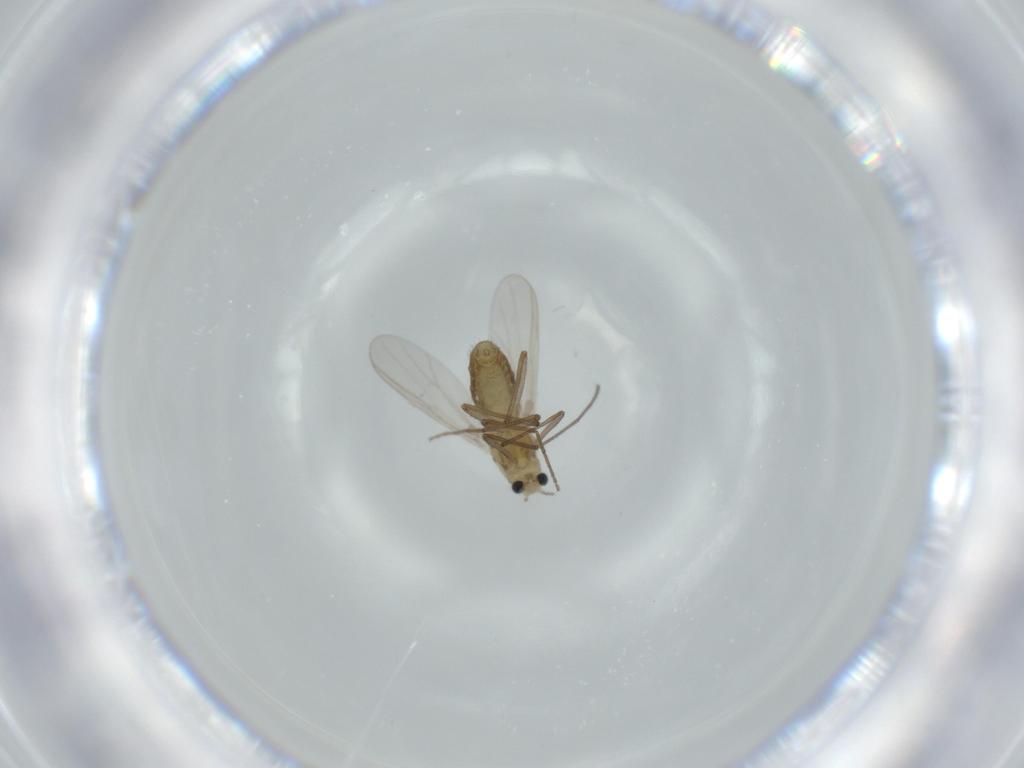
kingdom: Animalia
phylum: Arthropoda
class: Insecta
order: Diptera
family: Chironomidae
